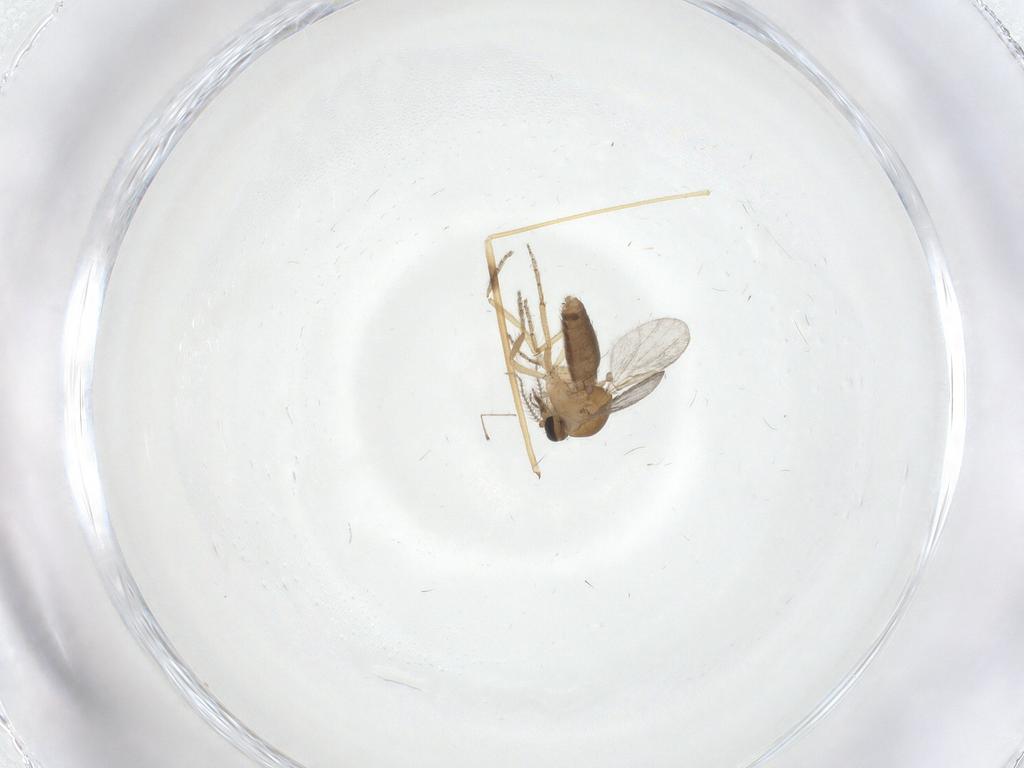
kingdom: Animalia
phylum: Arthropoda
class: Insecta
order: Diptera
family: Ceratopogonidae
